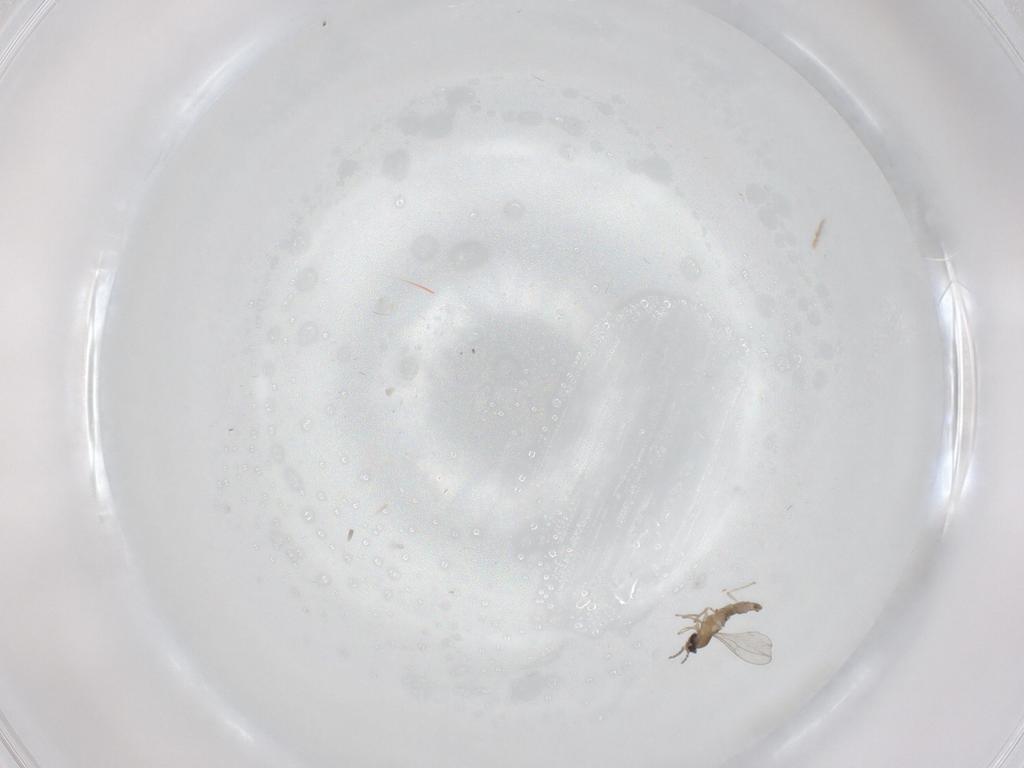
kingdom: Animalia
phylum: Arthropoda
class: Insecta
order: Diptera
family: Cecidomyiidae
